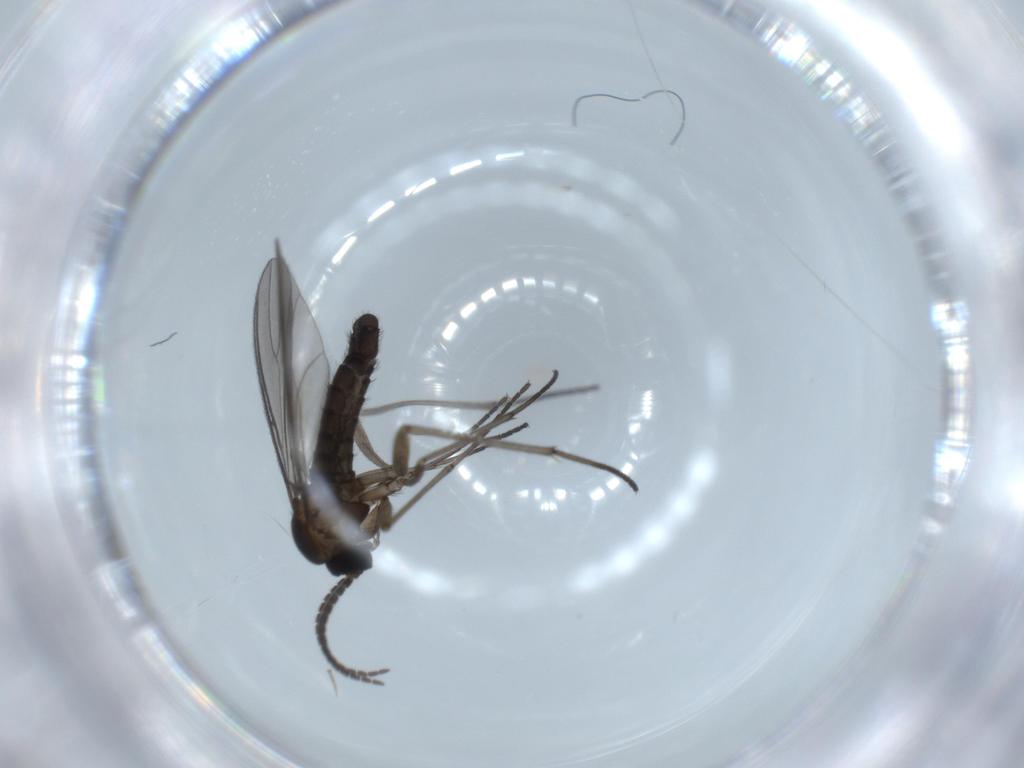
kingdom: Animalia
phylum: Arthropoda
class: Insecta
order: Diptera
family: Sciaridae
